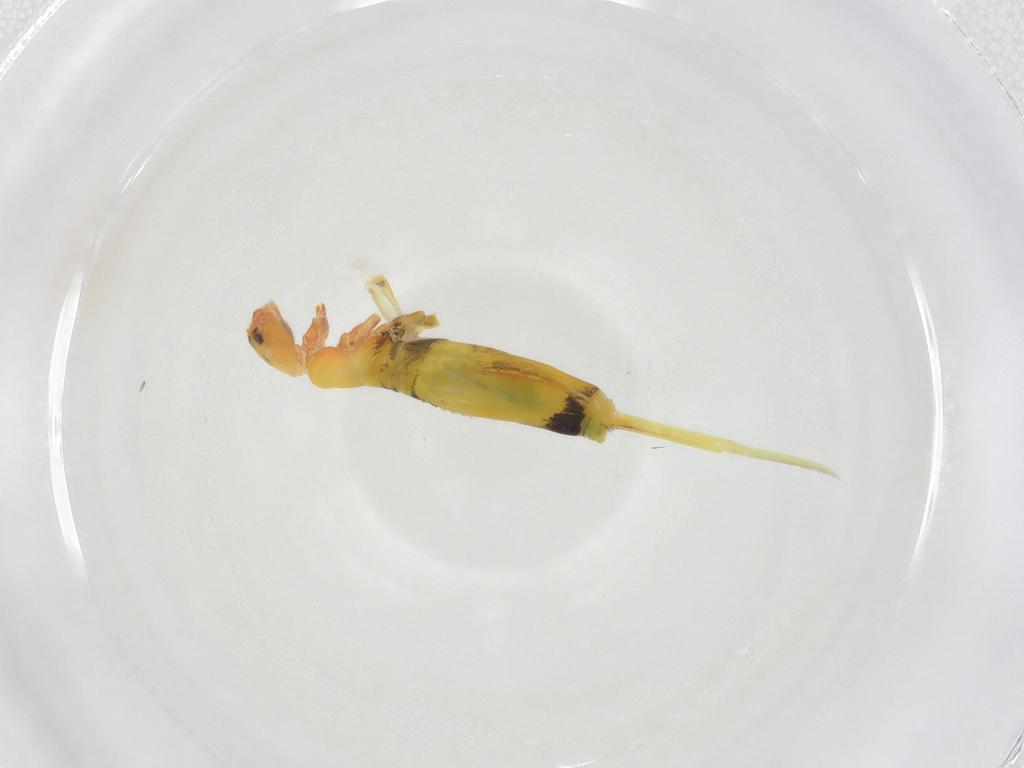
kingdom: Animalia
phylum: Arthropoda
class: Collembola
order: Entomobryomorpha
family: Entomobryidae
